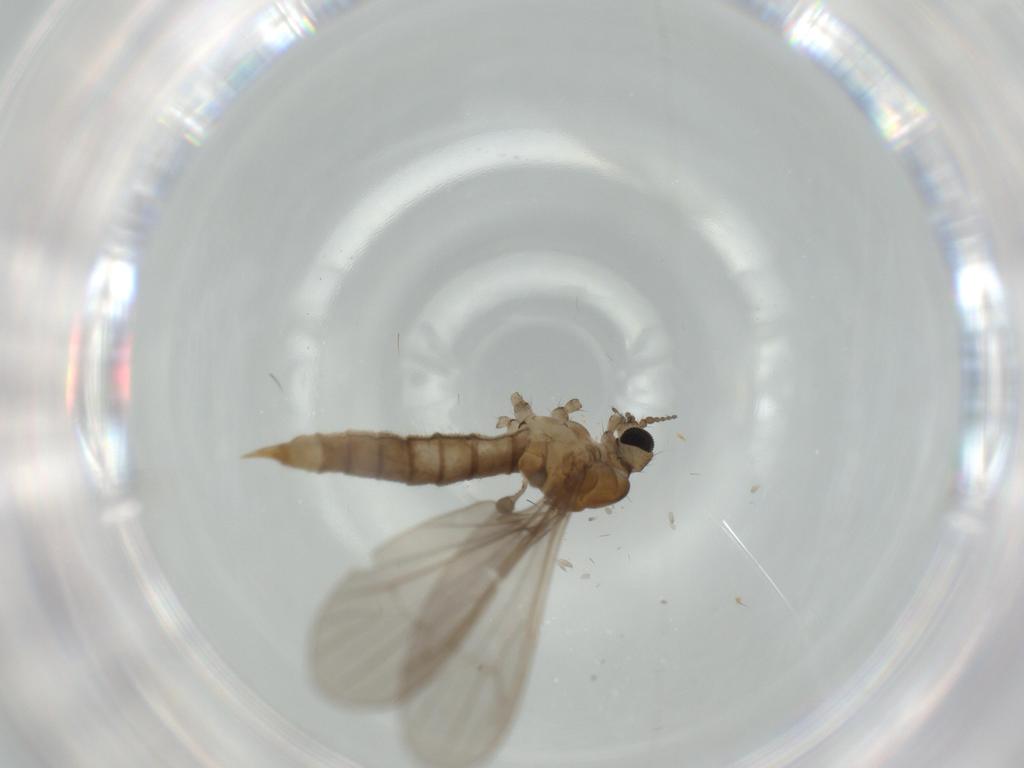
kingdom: Animalia
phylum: Arthropoda
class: Insecta
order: Diptera
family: Limoniidae
